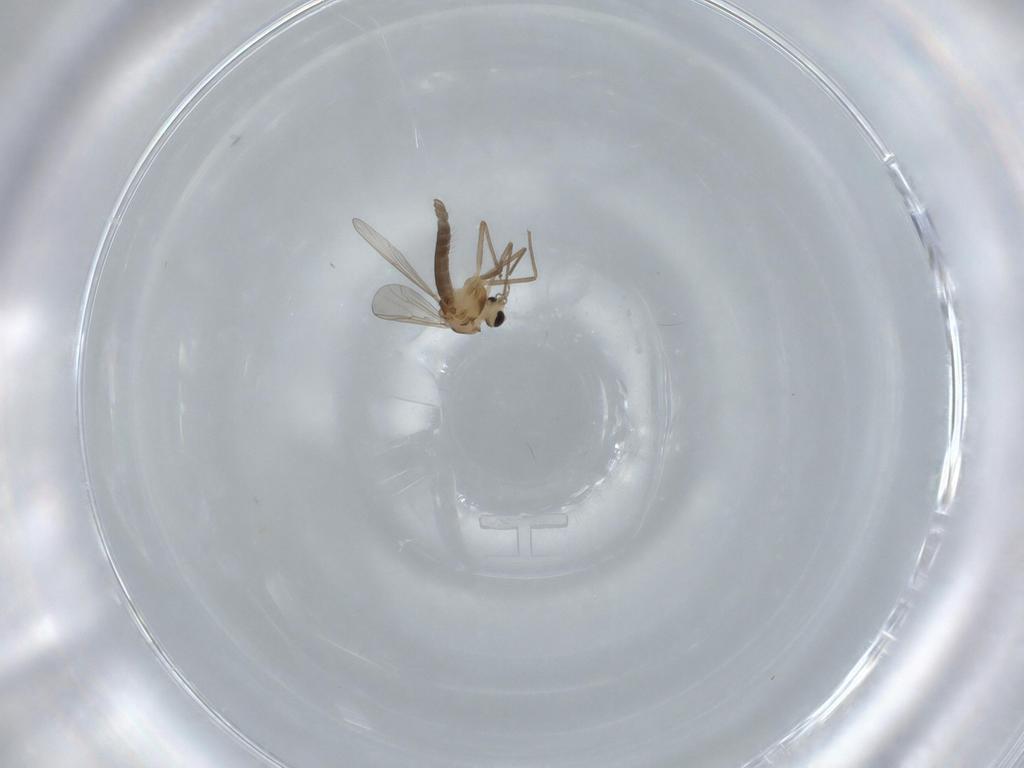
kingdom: Animalia
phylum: Arthropoda
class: Insecta
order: Diptera
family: Chironomidae
